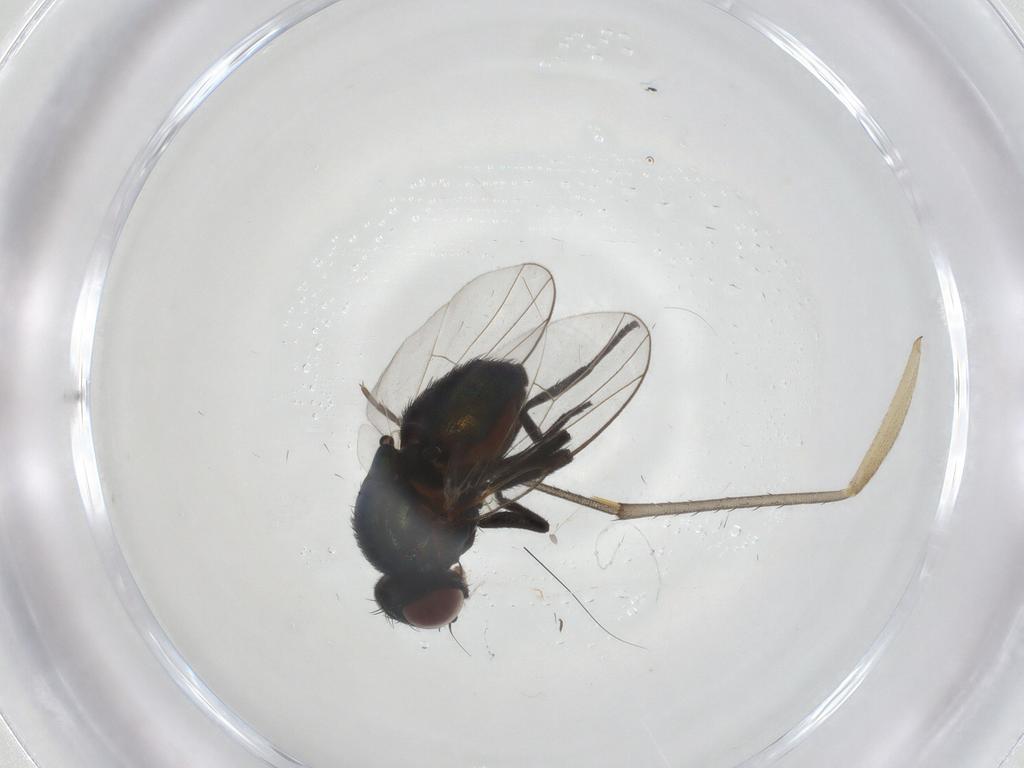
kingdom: Animalia
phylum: Arthropoda
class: Insecta
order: Diptera
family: Agromyzidae
